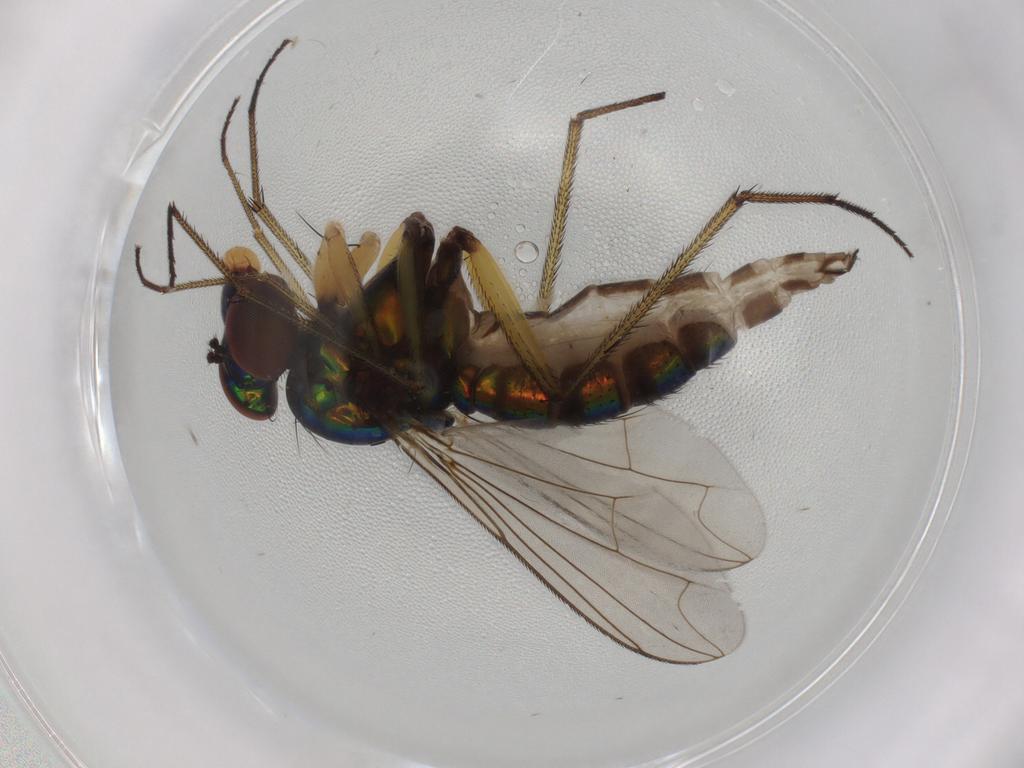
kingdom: Animalia
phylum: Arthropoda
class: Insecta
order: Diptera
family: Dolichopodidae
